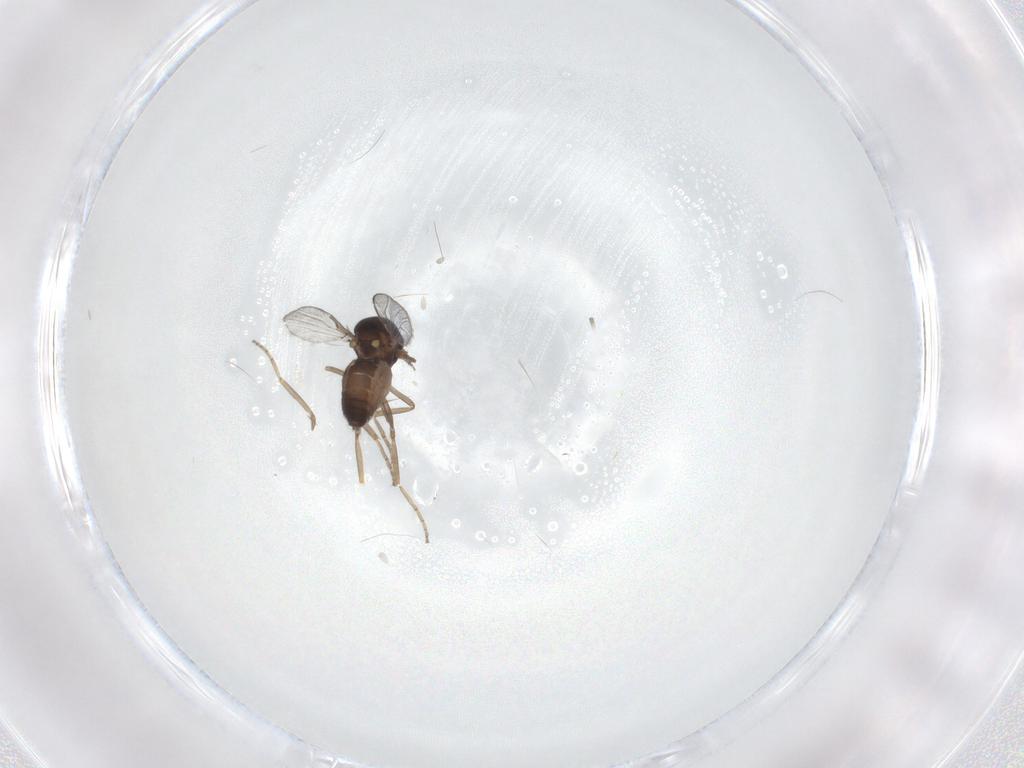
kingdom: Animalia
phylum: Arthropoda
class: Insecta
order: Diptera
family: Ceratopogonidae
